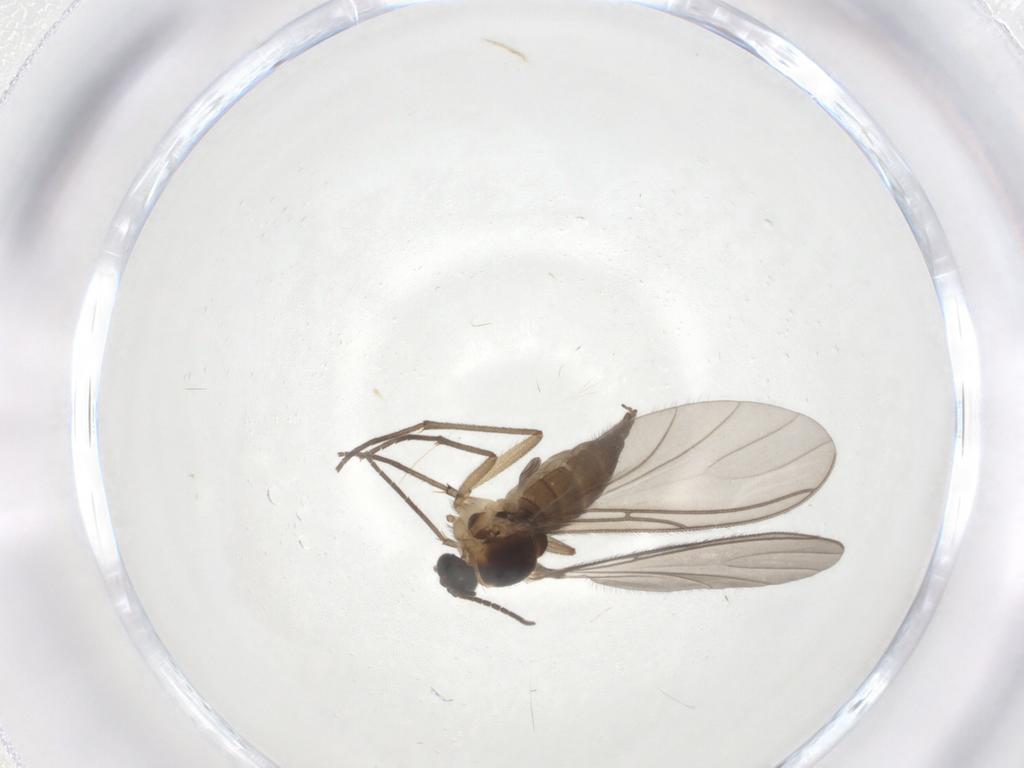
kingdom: Animalia
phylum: Arthropoda
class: Insecta
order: Diptera
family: Sciaridae
